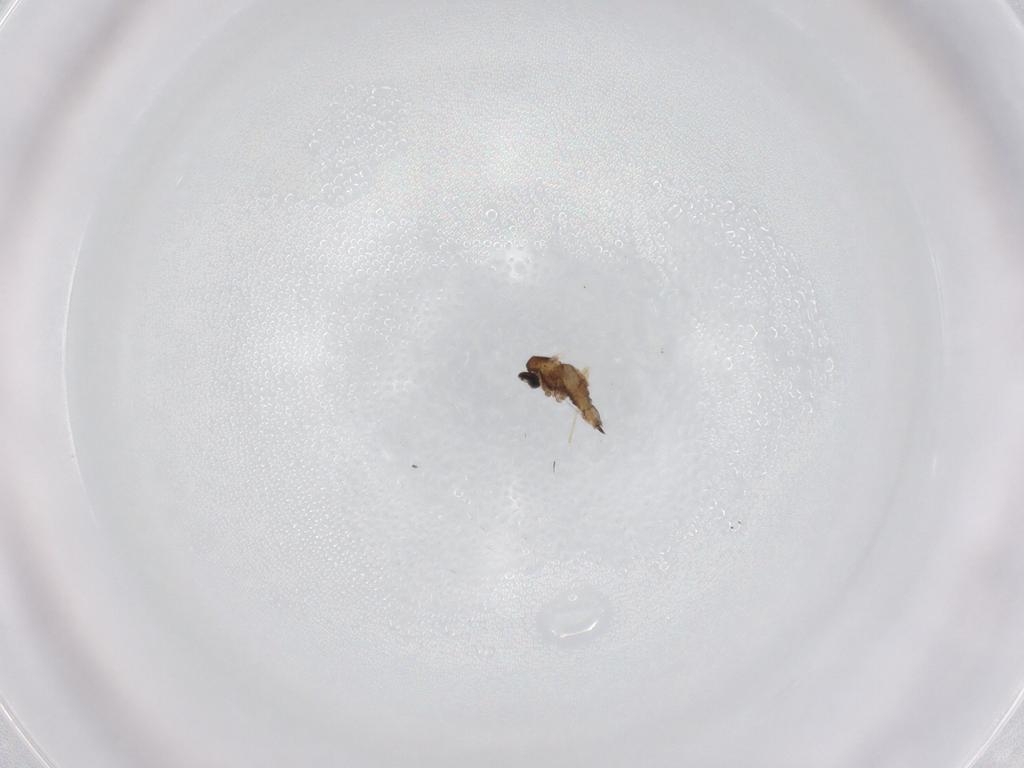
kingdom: Animalia
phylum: Arthropoda
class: Insecta
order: Diptera
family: Cecidomyiidae
